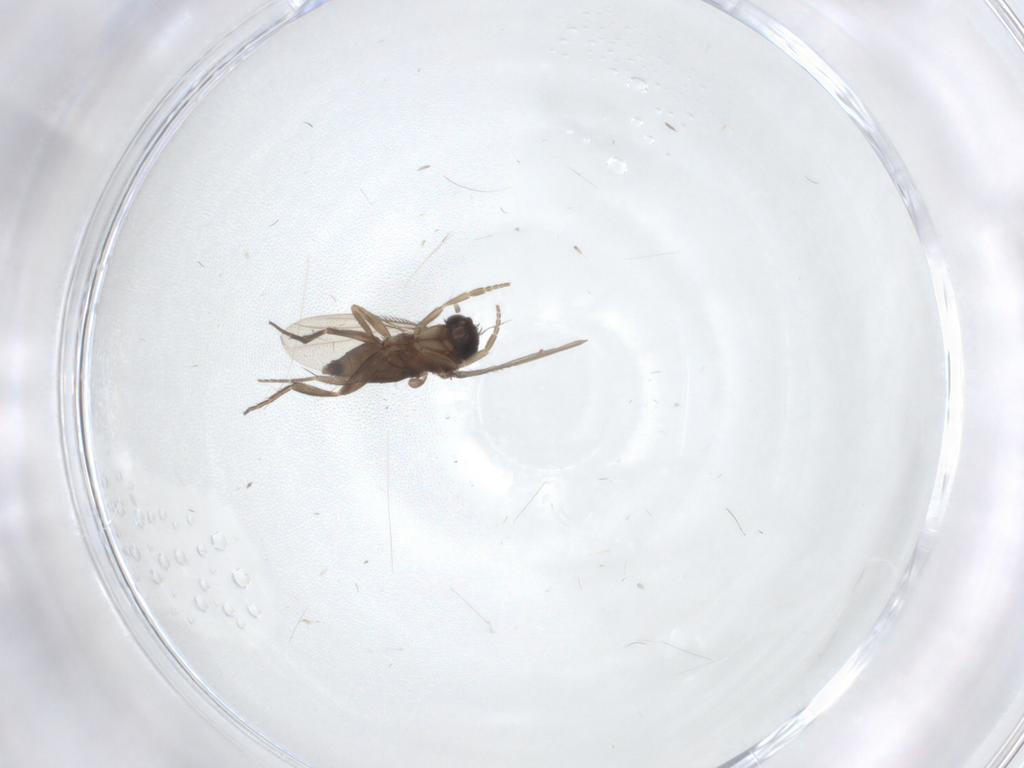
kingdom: Animalia
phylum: Arthropoda
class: Insecta
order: Diptera
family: Phoridae
